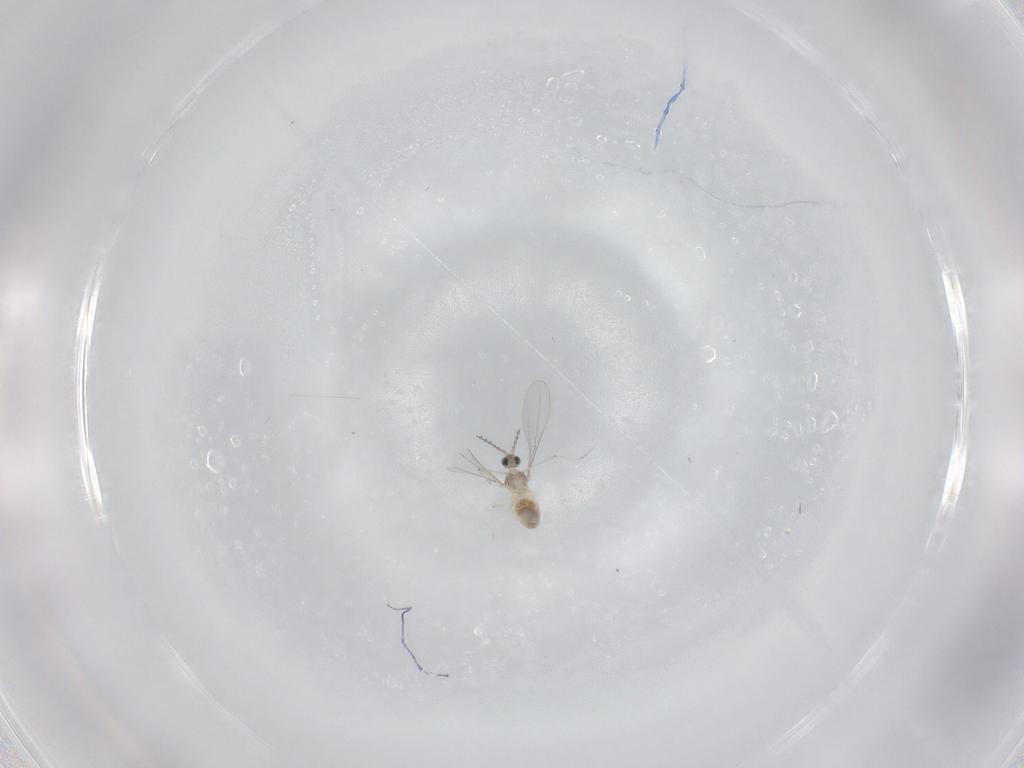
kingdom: Animalia
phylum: Arthropoda
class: Insecta
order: Diptera
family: Cecidomyiidae
